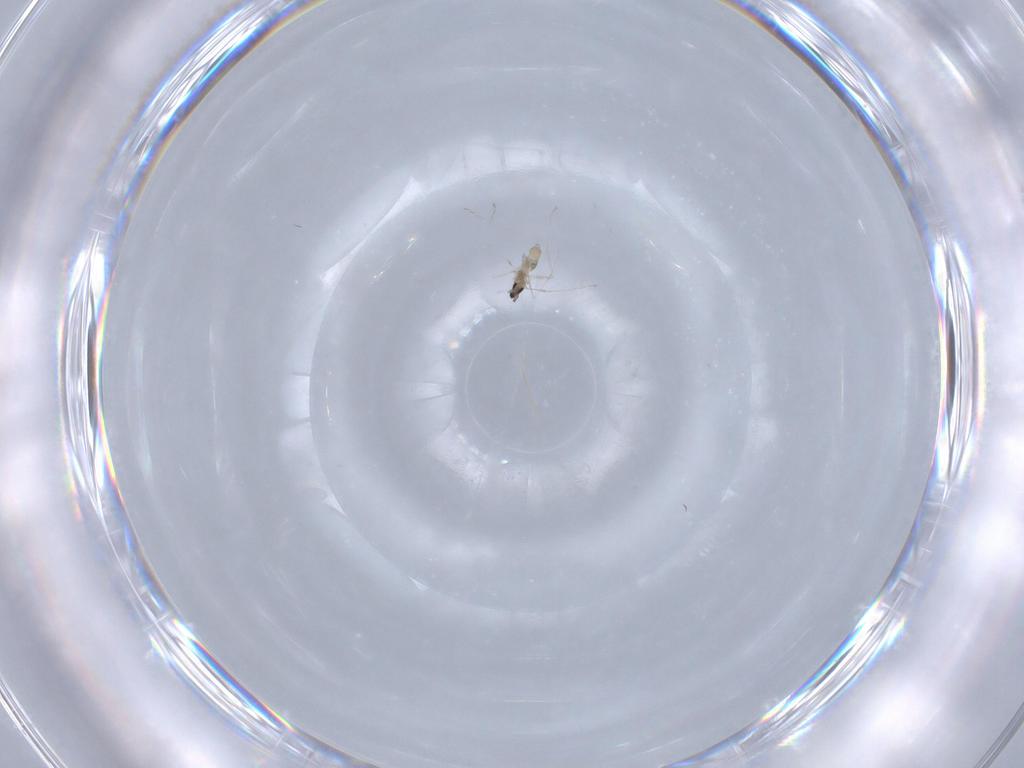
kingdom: Animalia
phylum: Arthropoda
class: Insecta
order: Diptera
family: Cecidomyiidae
